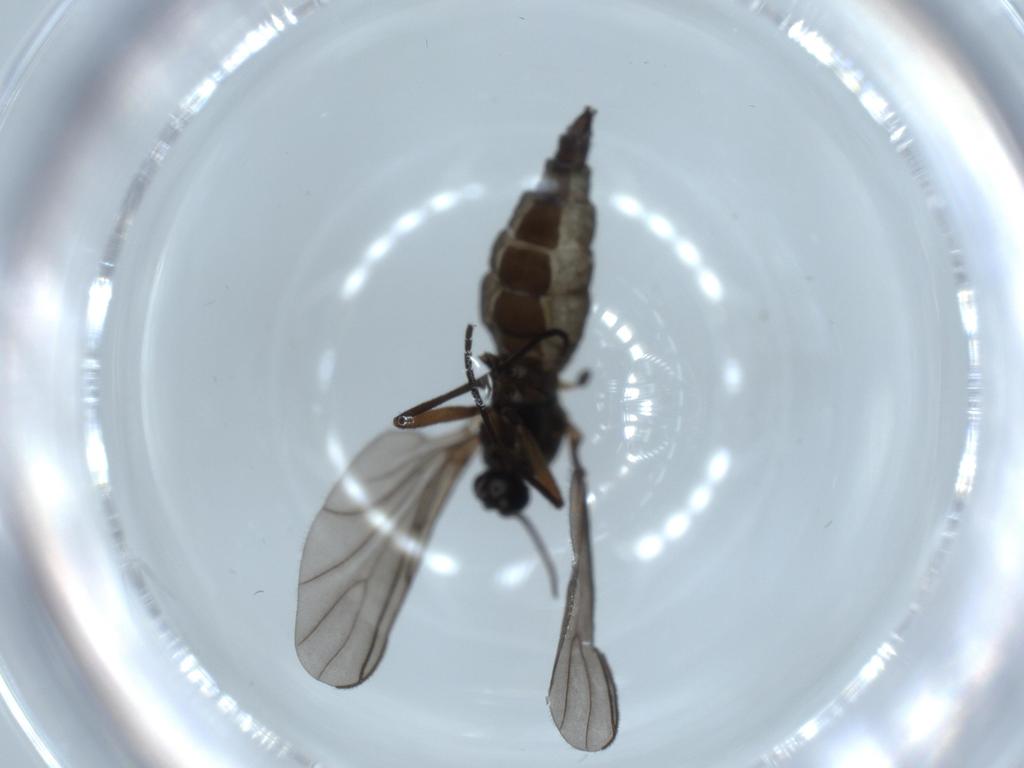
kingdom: Animalia
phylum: Arthropoda
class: Insecta
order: Diptera
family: Sciaridae
